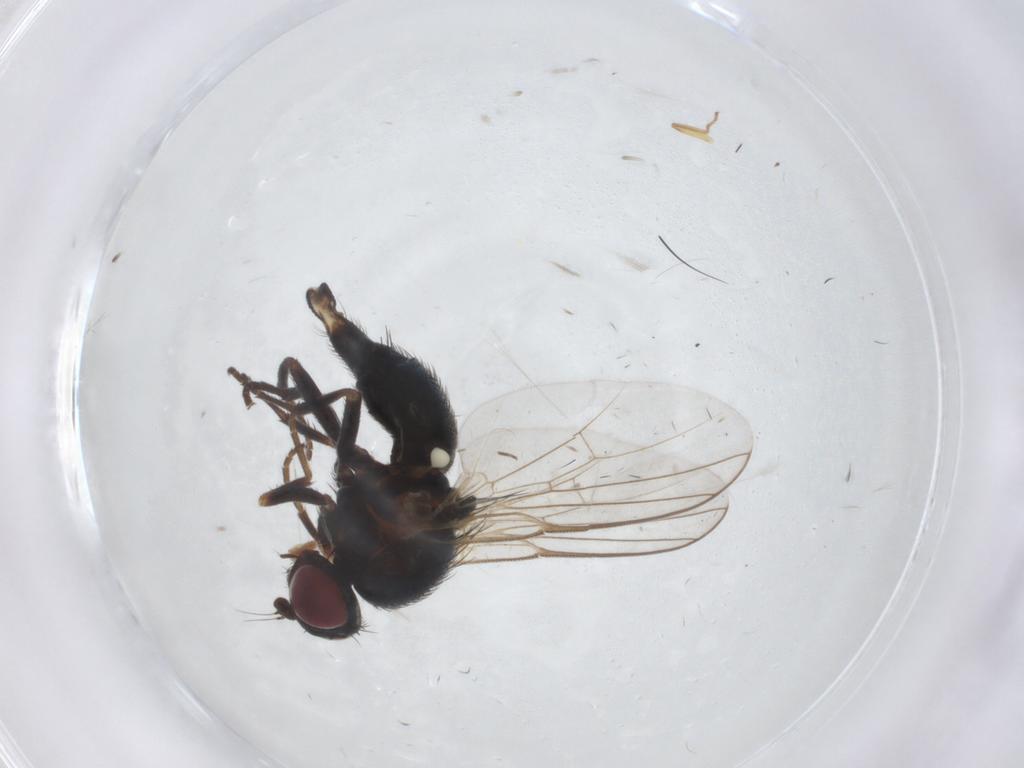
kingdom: Animalia
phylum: Arthropoda
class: Insecta
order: Diptera
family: Agromyzidae
